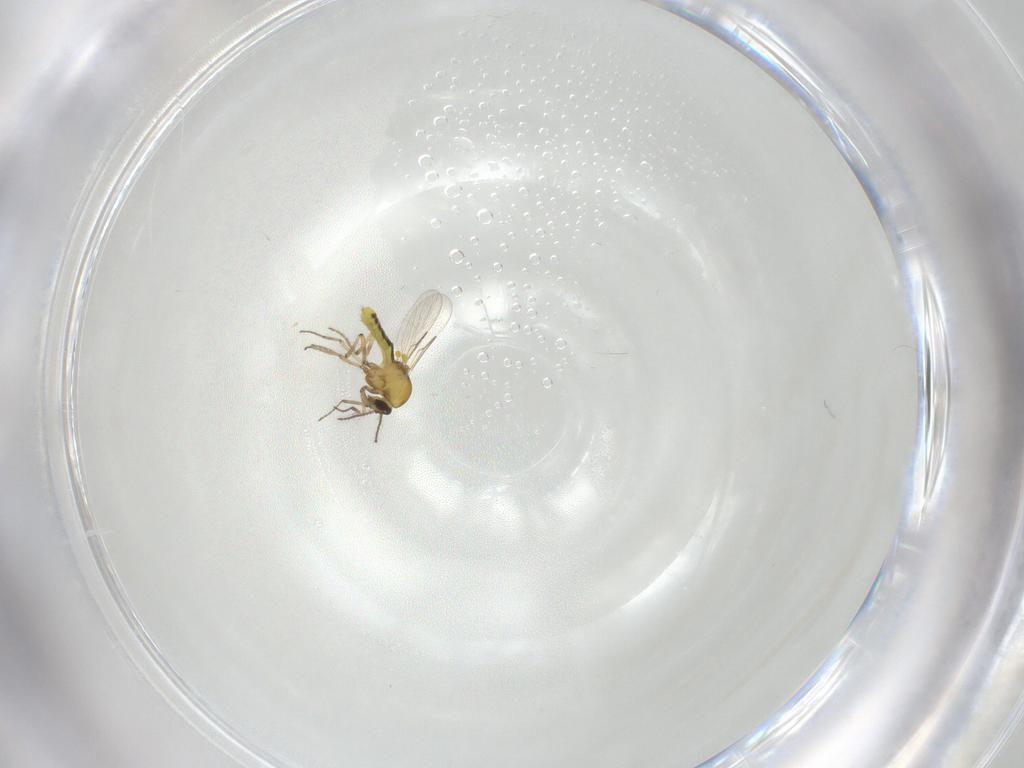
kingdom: Animalia
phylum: Arthropoda
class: Insecta
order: Diptera
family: Ceratopogonidae
